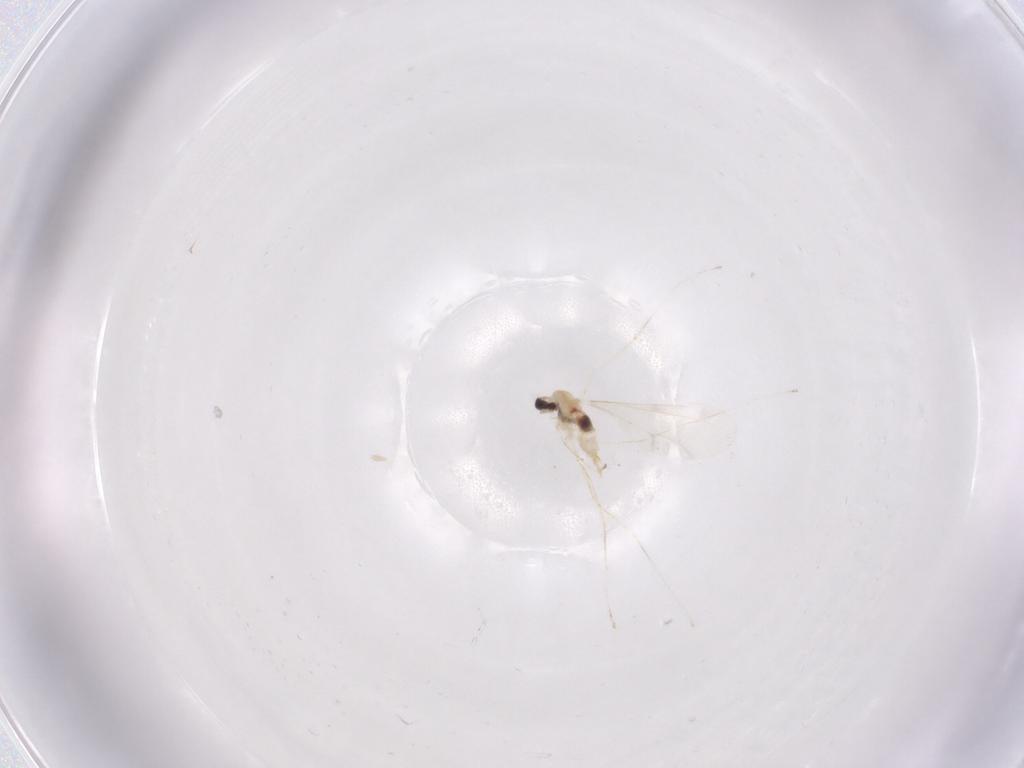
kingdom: Animalia
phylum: Arthropoda
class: Insecta
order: Diptera
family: Cecidomyiidae
